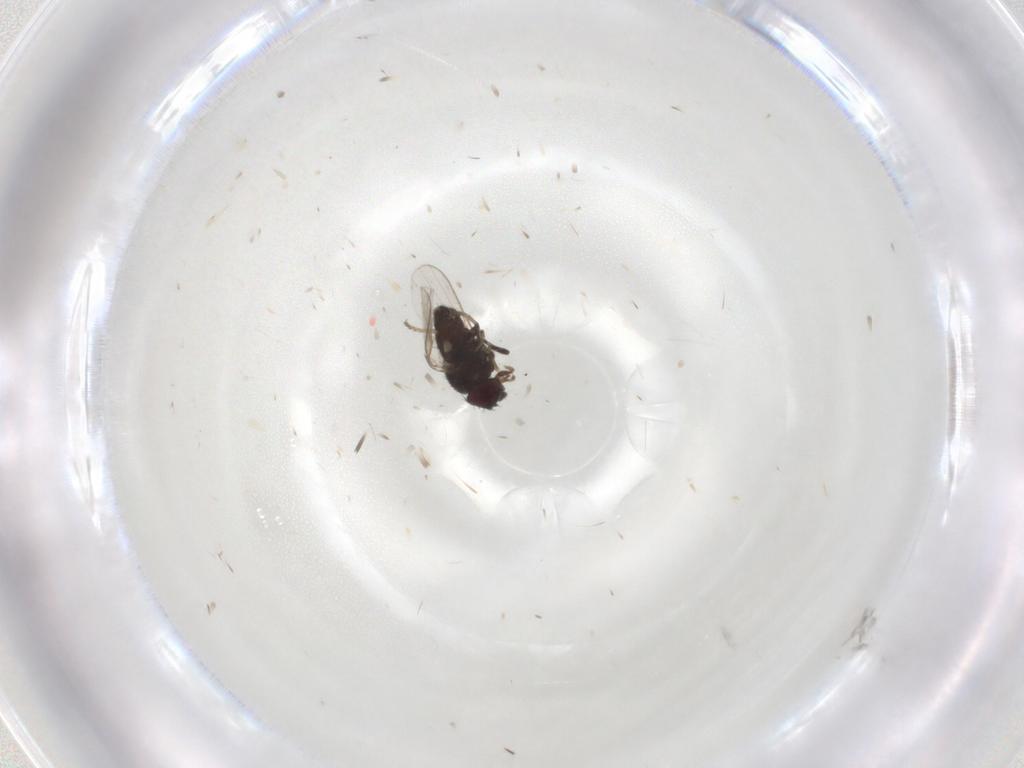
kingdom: Animalia
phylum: Arthropoda
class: Insecta
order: Diptera
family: Milichiidae
